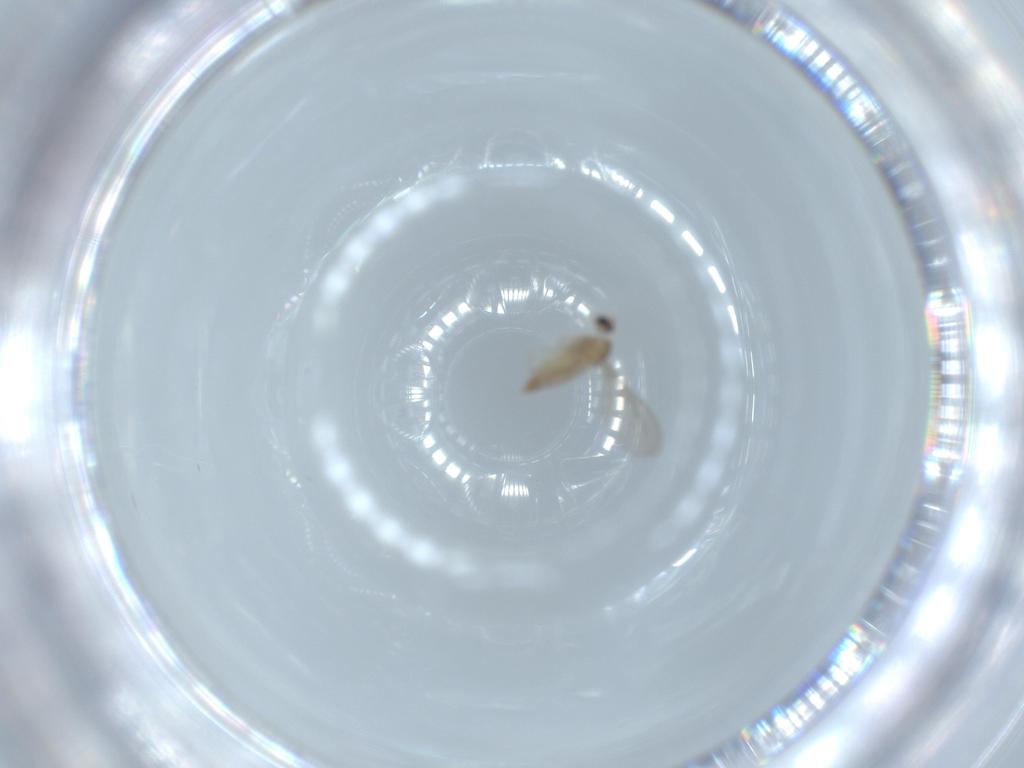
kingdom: Animalia
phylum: Arthropoda
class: Insecta
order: Diptera
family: Cecidomyiidae
